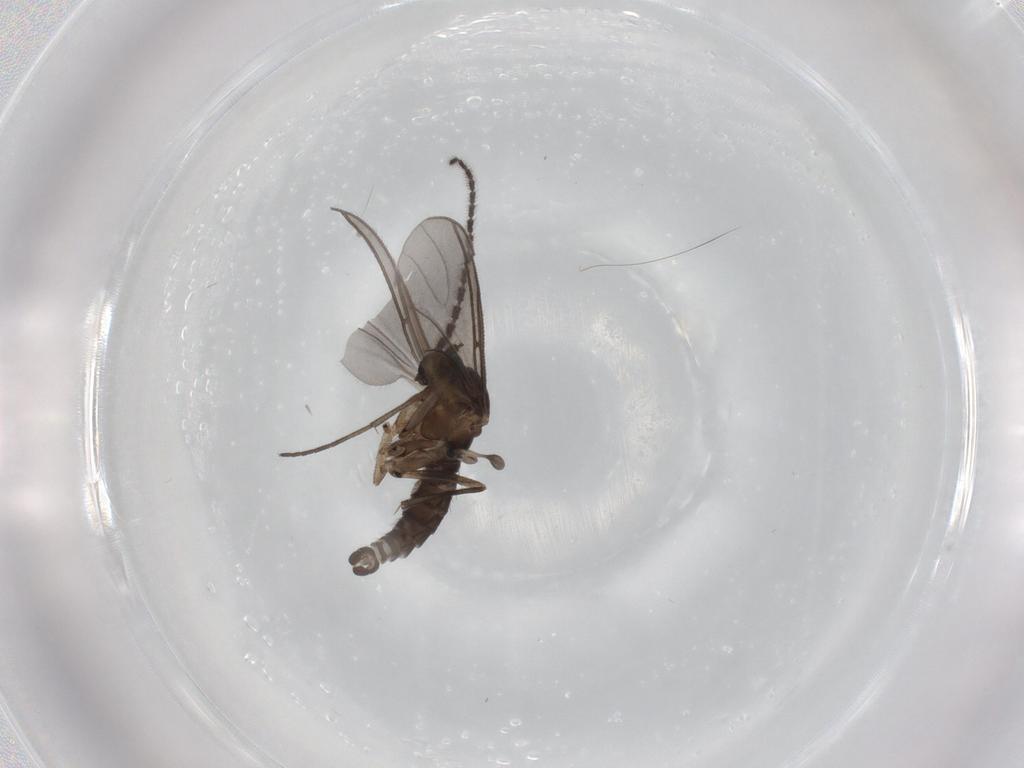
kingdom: Animalia
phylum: Arthropoda
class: Insecta
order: Diptera
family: Sciaridae
